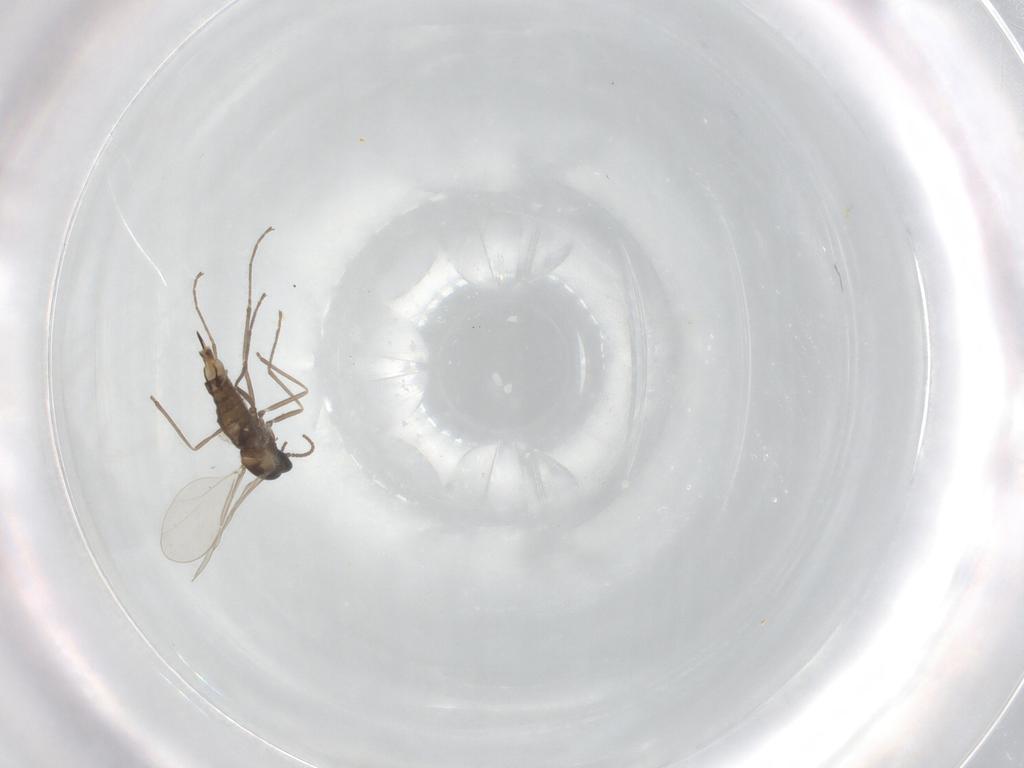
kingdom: Animalia
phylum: Arthropoda
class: Insecta
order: Diptera
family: Cecidomyiidae
